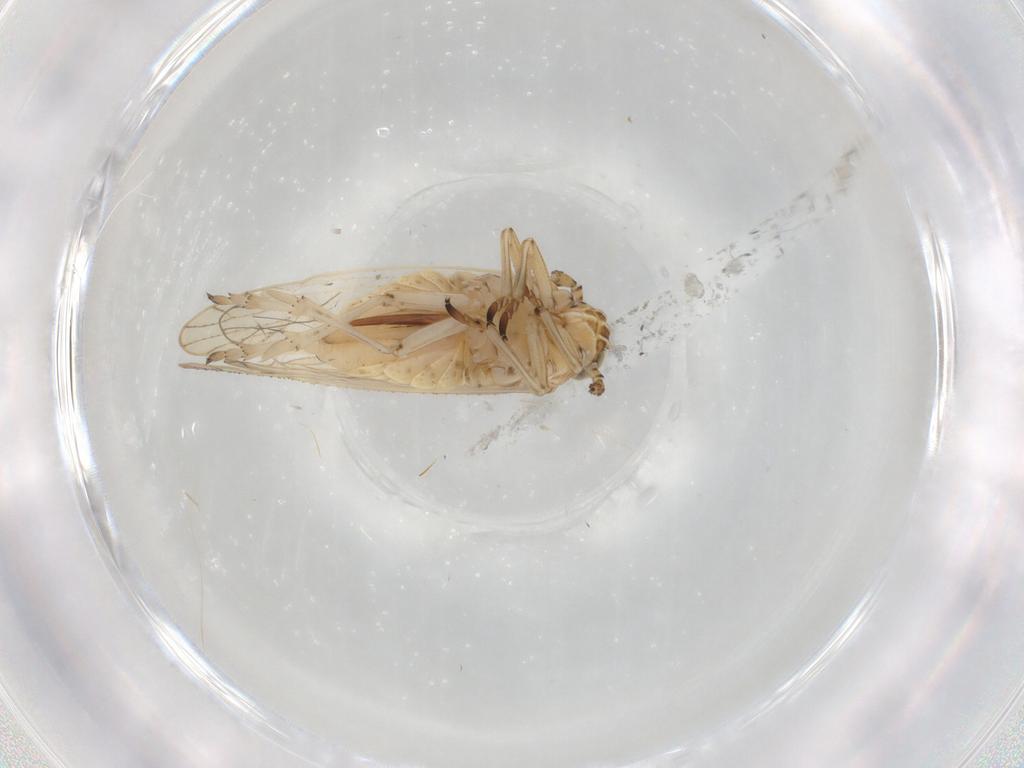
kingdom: Animalia
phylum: Arthropoda
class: Insecta
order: Hemiptera
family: Delphacidae
